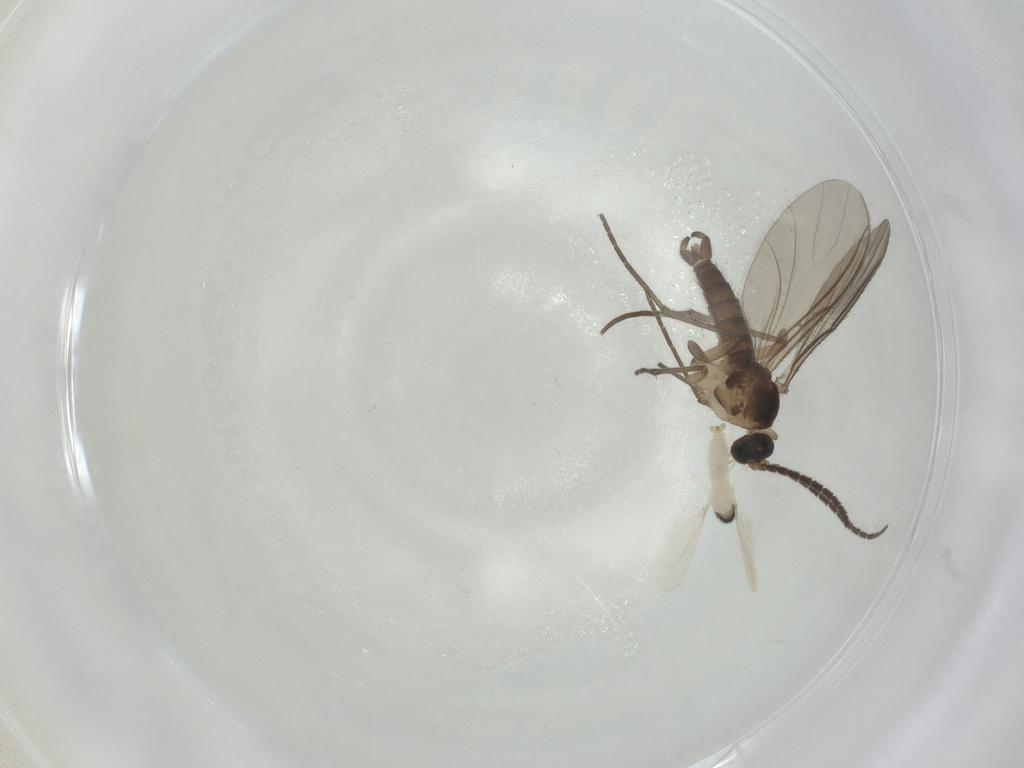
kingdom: Animalia
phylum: Arthropoda
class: Insecta
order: Diptera
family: Sciaridae
